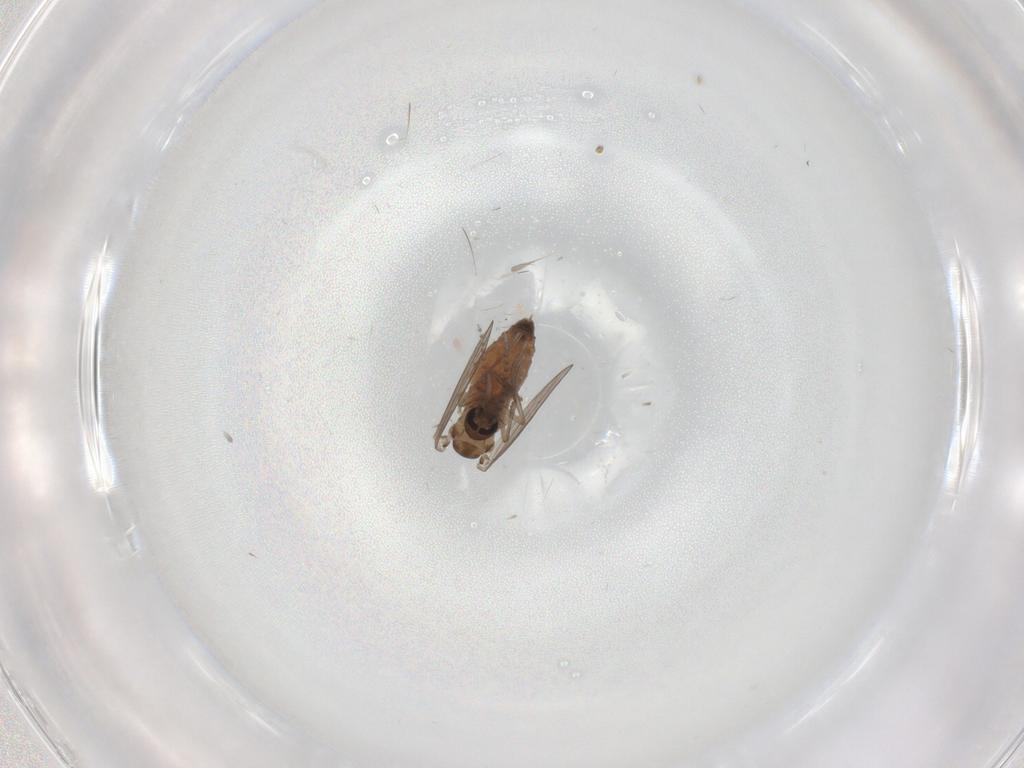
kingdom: Animalia
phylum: Arthropoda
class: Insecta
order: Diptera
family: Psychodidae
